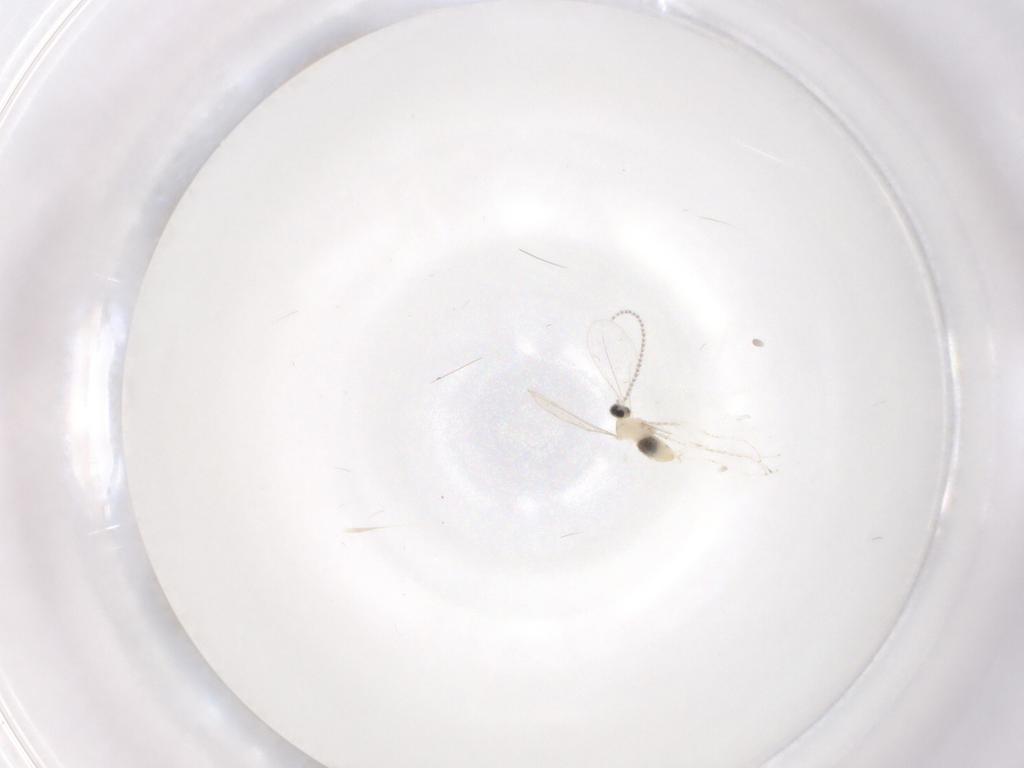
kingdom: Animalia
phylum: Arthropoda
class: Insecta
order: Diptera
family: Cecidomyiidae
